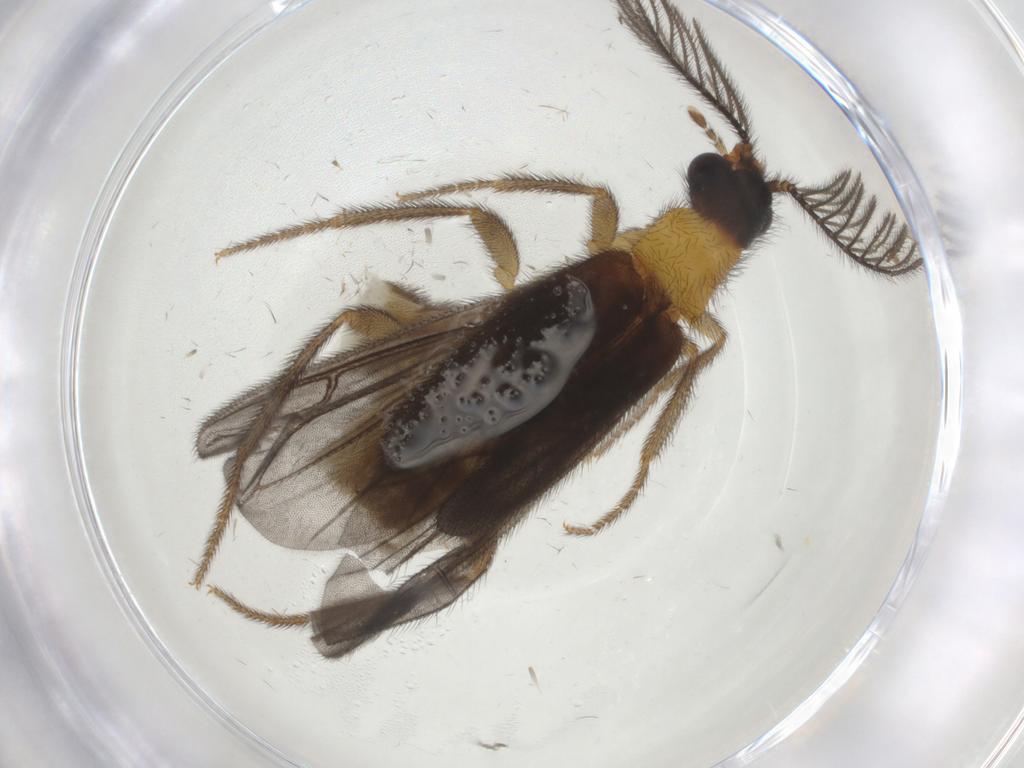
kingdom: Animalia
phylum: Arthropoda
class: Insecta
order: Coleoptera
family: Phengodidae
